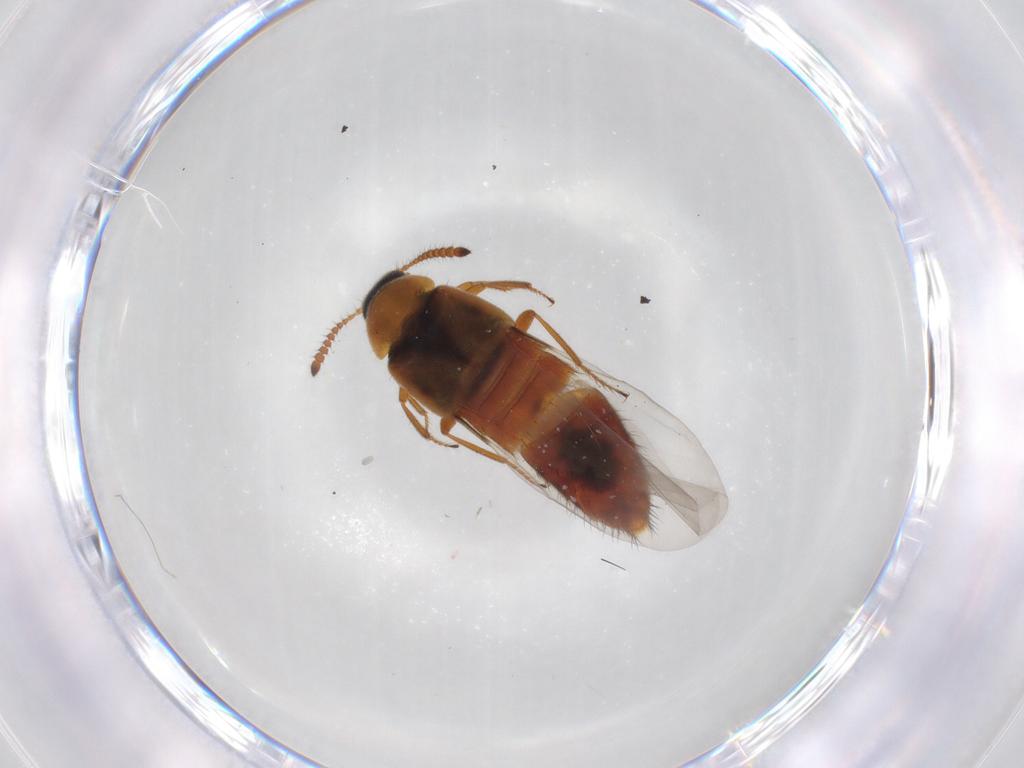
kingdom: Animalia
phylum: Arthropoda
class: Insecta
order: Coleoptera
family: Staphylinidae
